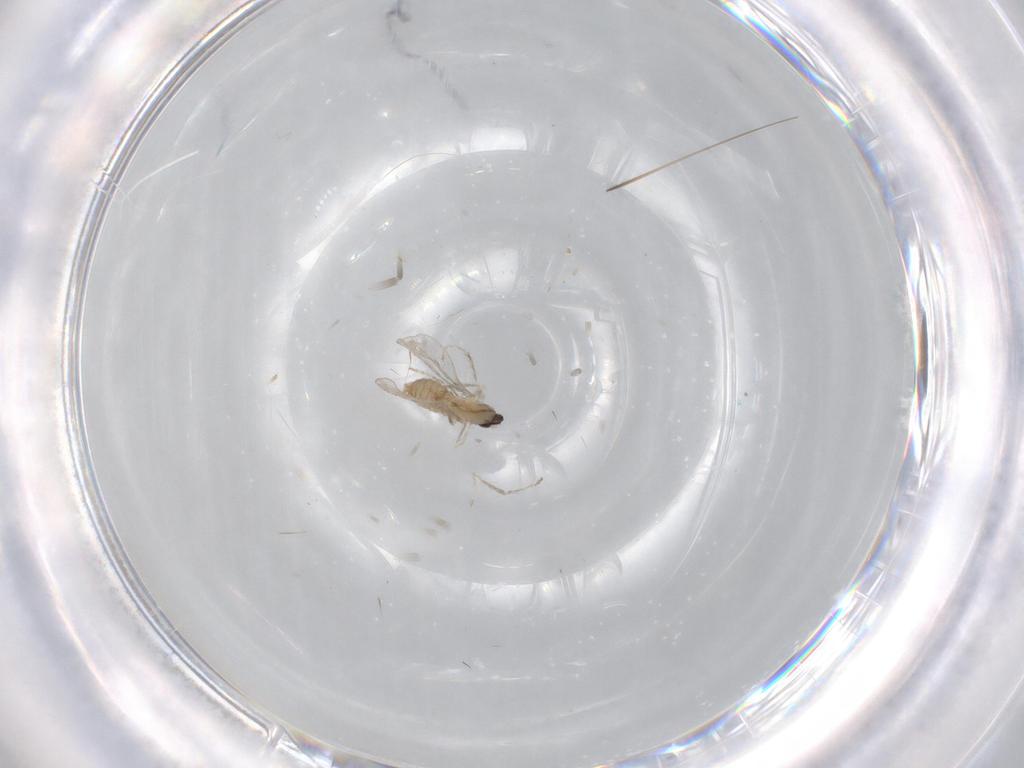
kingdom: Animalia
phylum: Arthropoda
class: Insecta
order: Diptera
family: Cecidomyiidae
